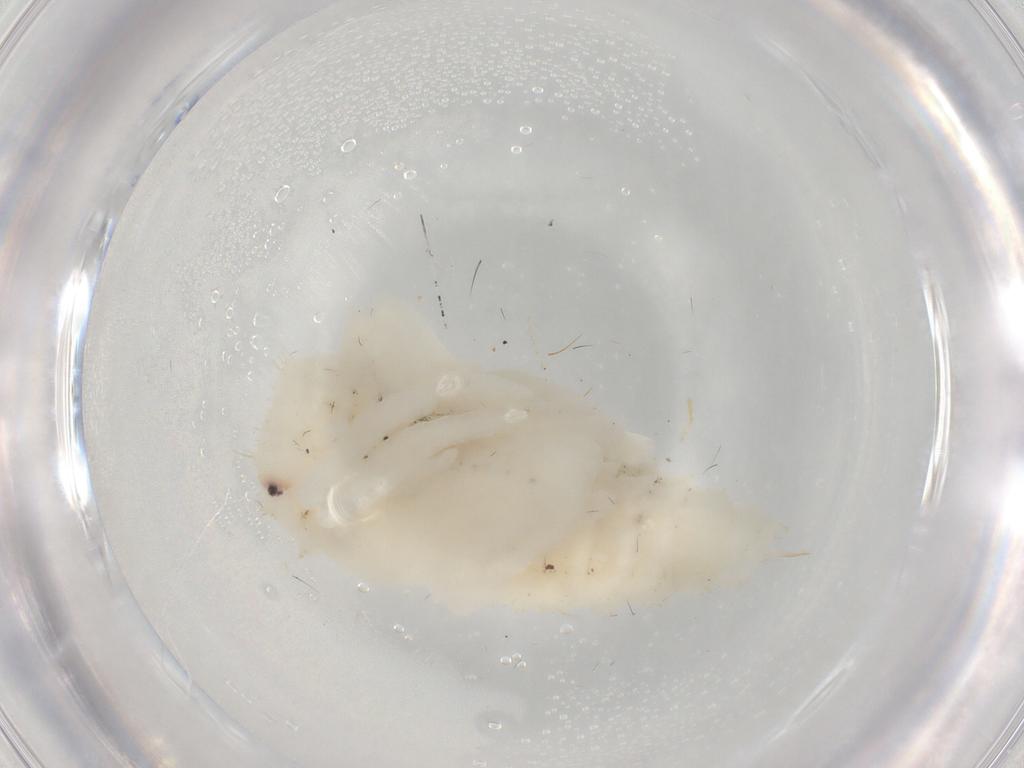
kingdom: Animalia
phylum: Arthropoda
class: Insecta
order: Coleoptera
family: Dytiscidae
